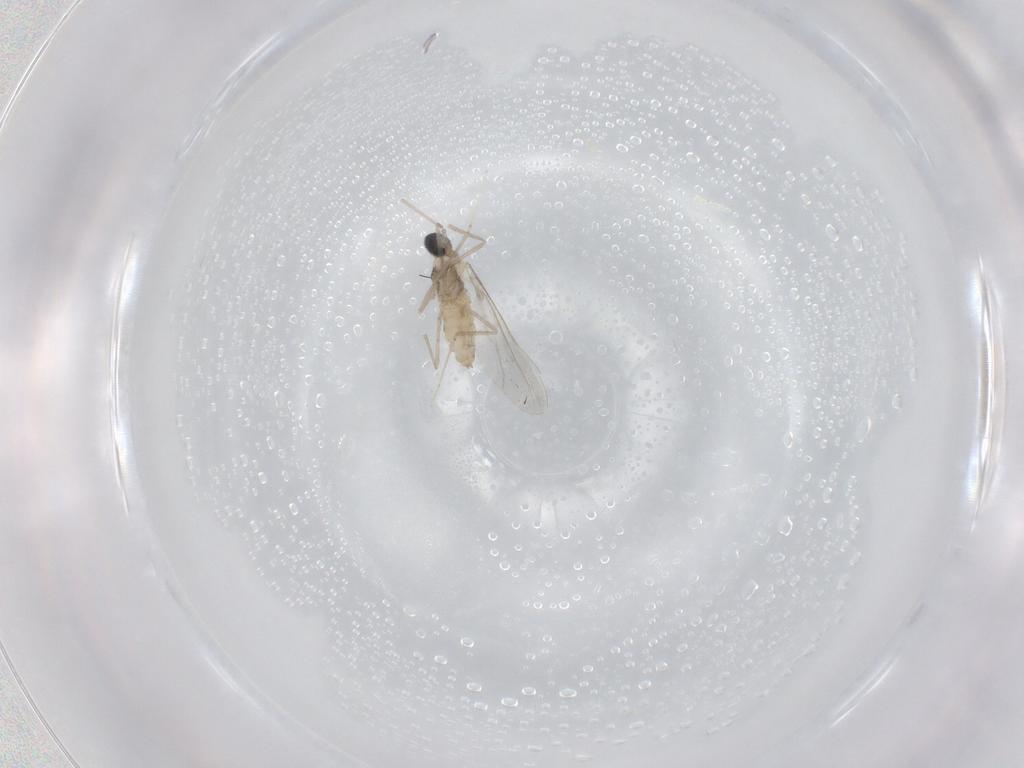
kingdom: Animalia
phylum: Arthropoda
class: Insecta
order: Diptera
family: Cecidomyiidae
